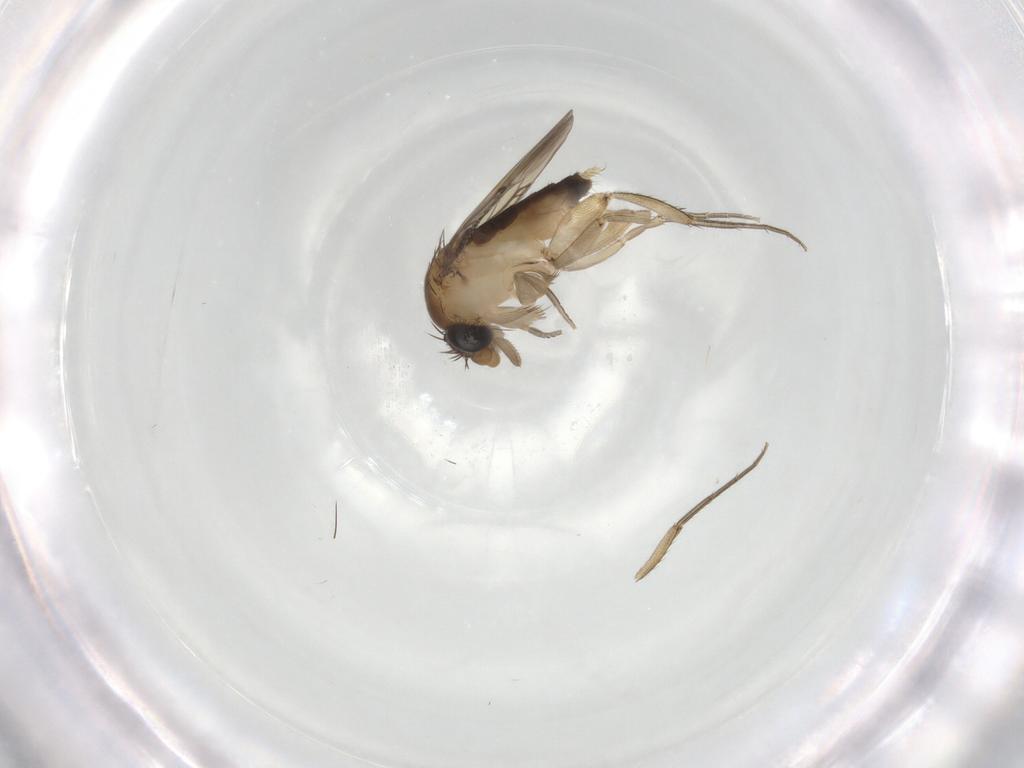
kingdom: Animalia
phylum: Arthropoda
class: Insecta
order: Diptera
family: Phoridae
